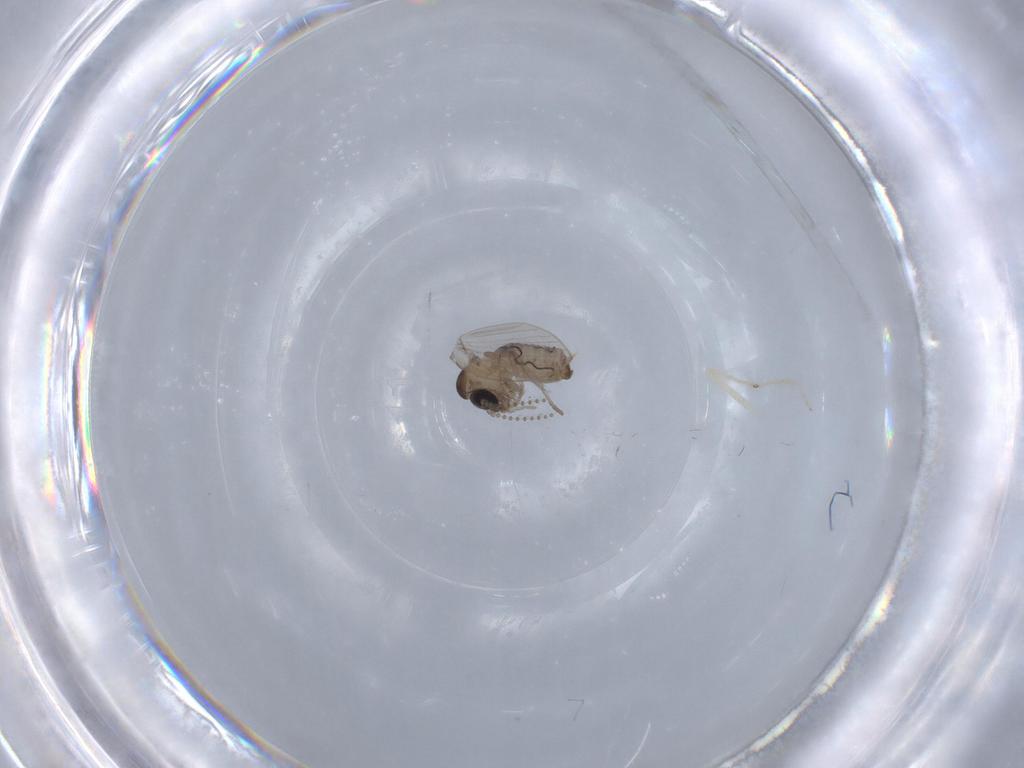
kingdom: Animalia
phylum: Arthropoda
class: Insecta
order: Diptera
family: Psychodidae
